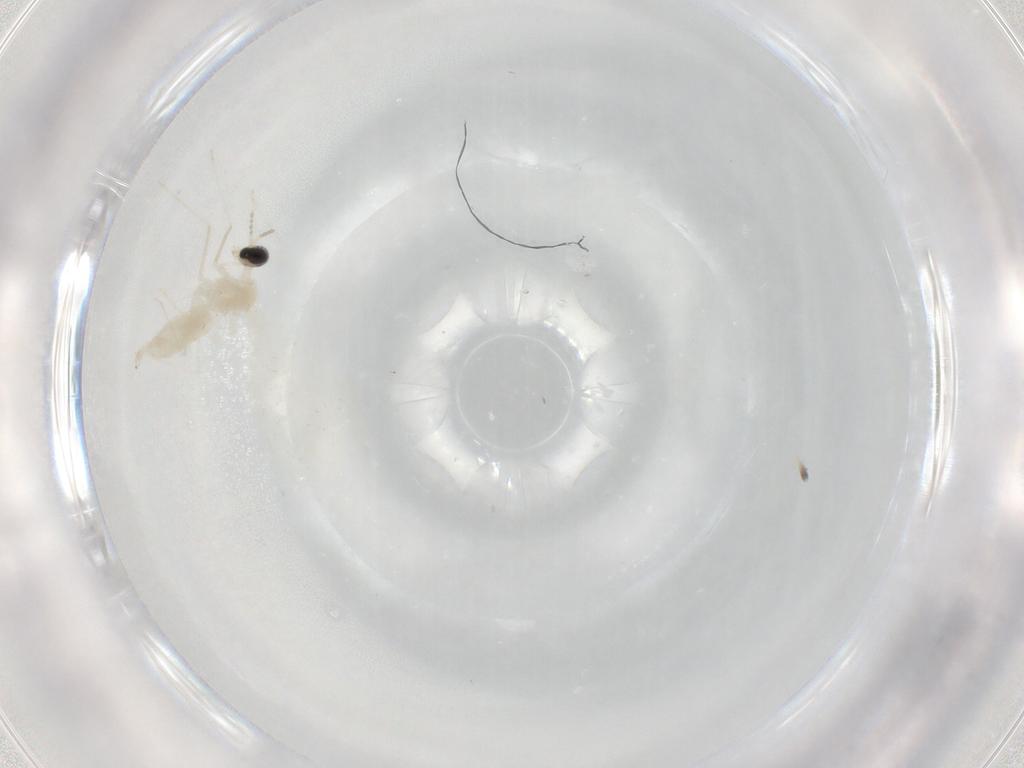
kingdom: Animalia
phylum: Arthropoda
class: Insecta
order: Diptera
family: Cecidomyiidae
